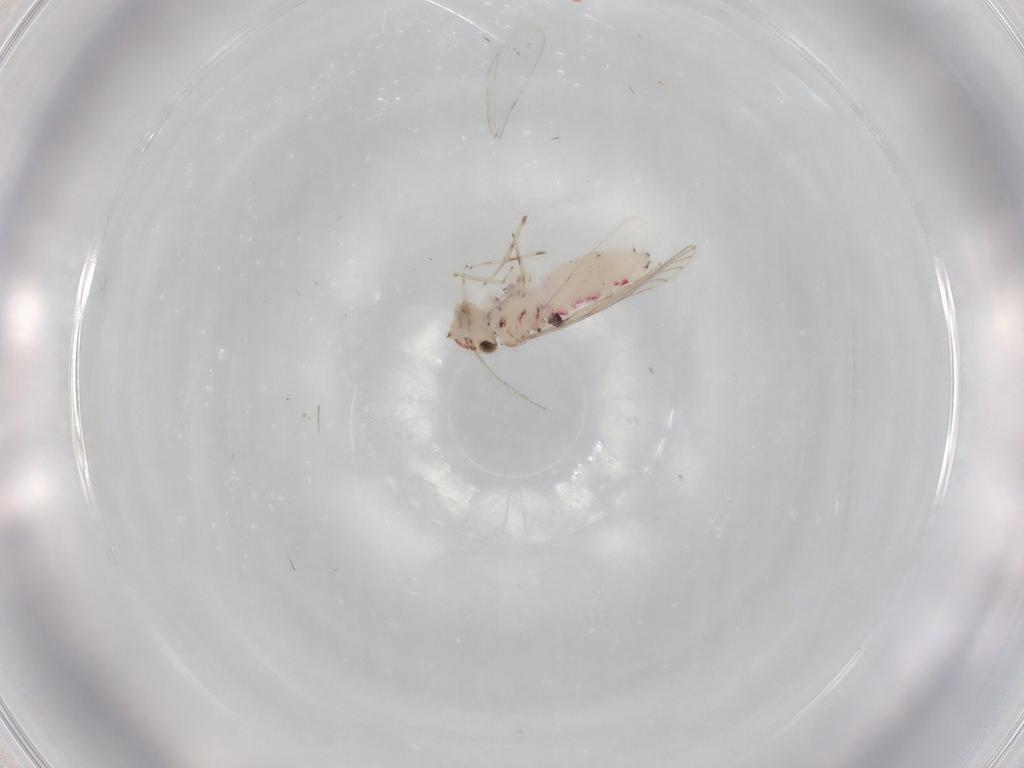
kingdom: Animalia
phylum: Arthropoda
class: Insecta
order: Psocodea
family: Caeciliusidae
